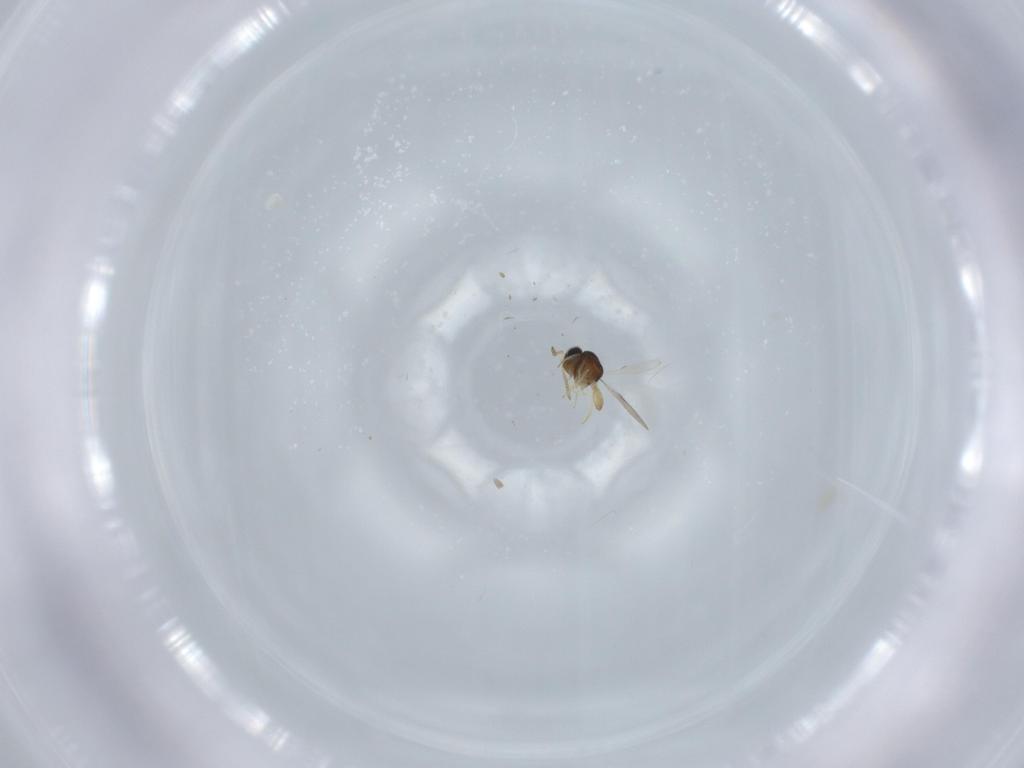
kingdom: Animalia
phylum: Arthropoda
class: Insecta
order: Hymenoptera
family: Scelionidae
